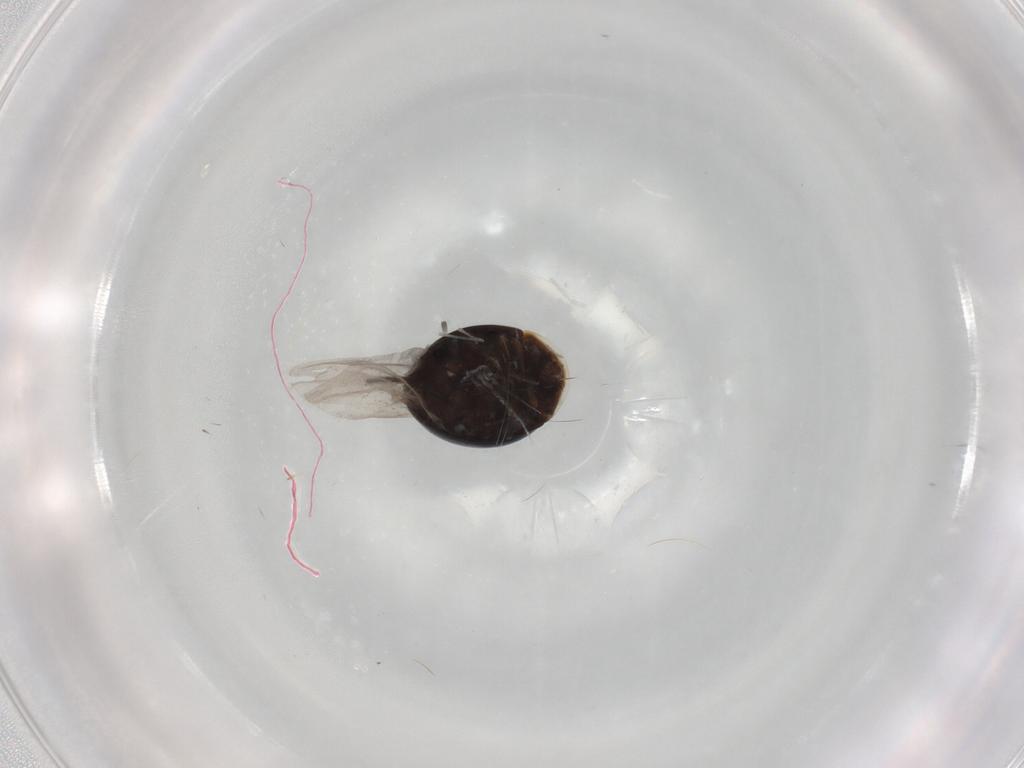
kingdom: Animalia
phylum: Arthropoda
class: Insecta
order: Coleoptera
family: Corylophidae
